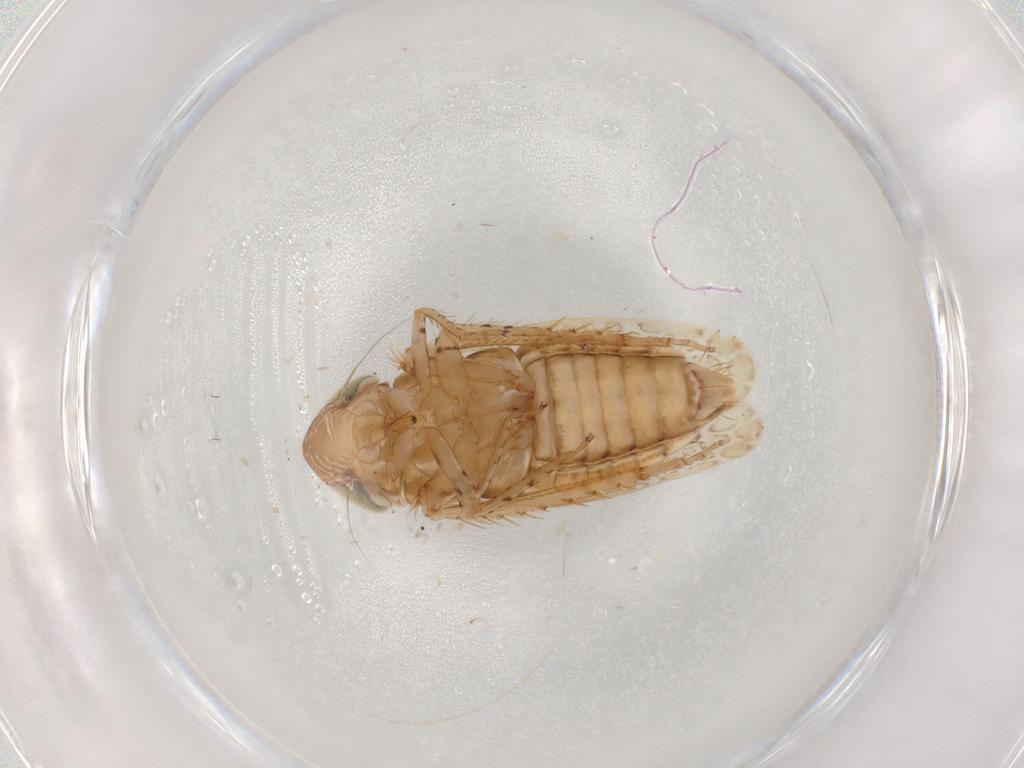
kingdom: Animalia
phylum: Arthropoda
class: Insecta
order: Hemiptera
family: Cicadellidae
